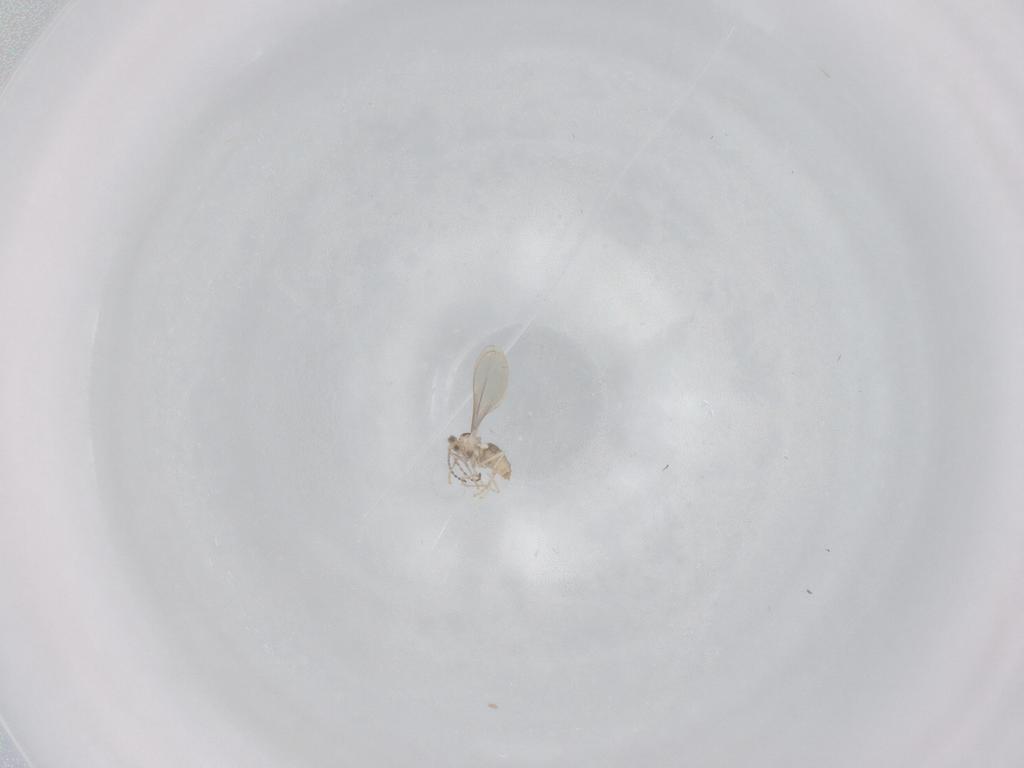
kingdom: Animalia
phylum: Arthropoda
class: Insecta
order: Diptera
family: Cecidomyiidae
